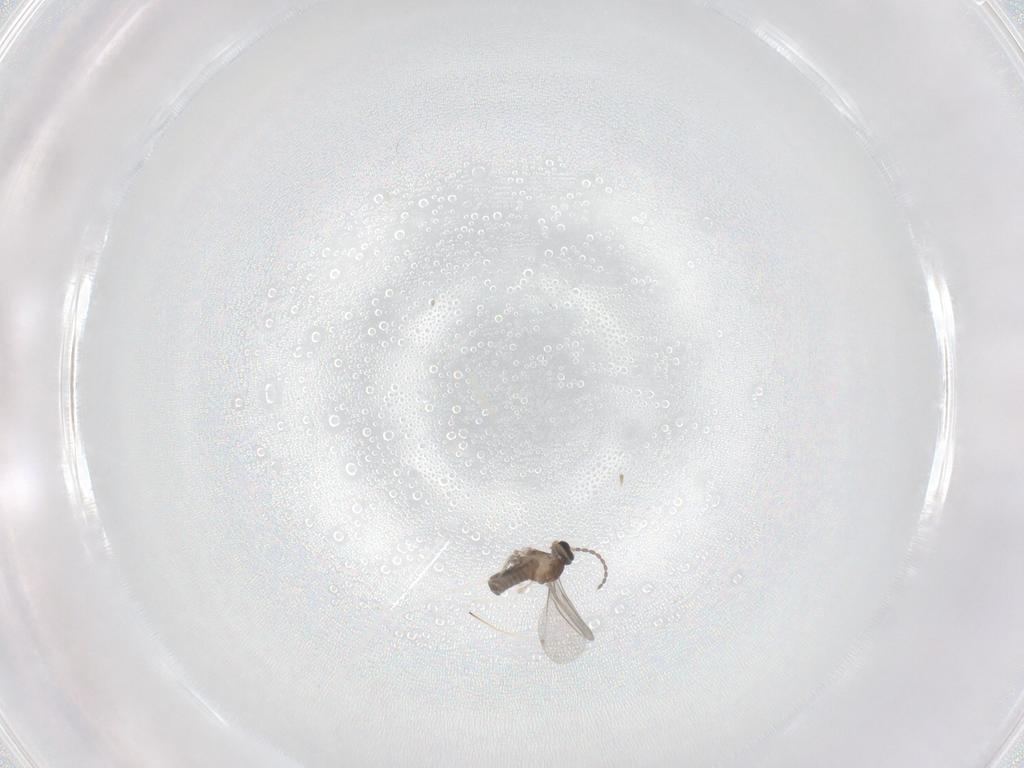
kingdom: Animalia
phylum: Arthropoda
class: Insecta
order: Diptera
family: Cecidomyiidae
